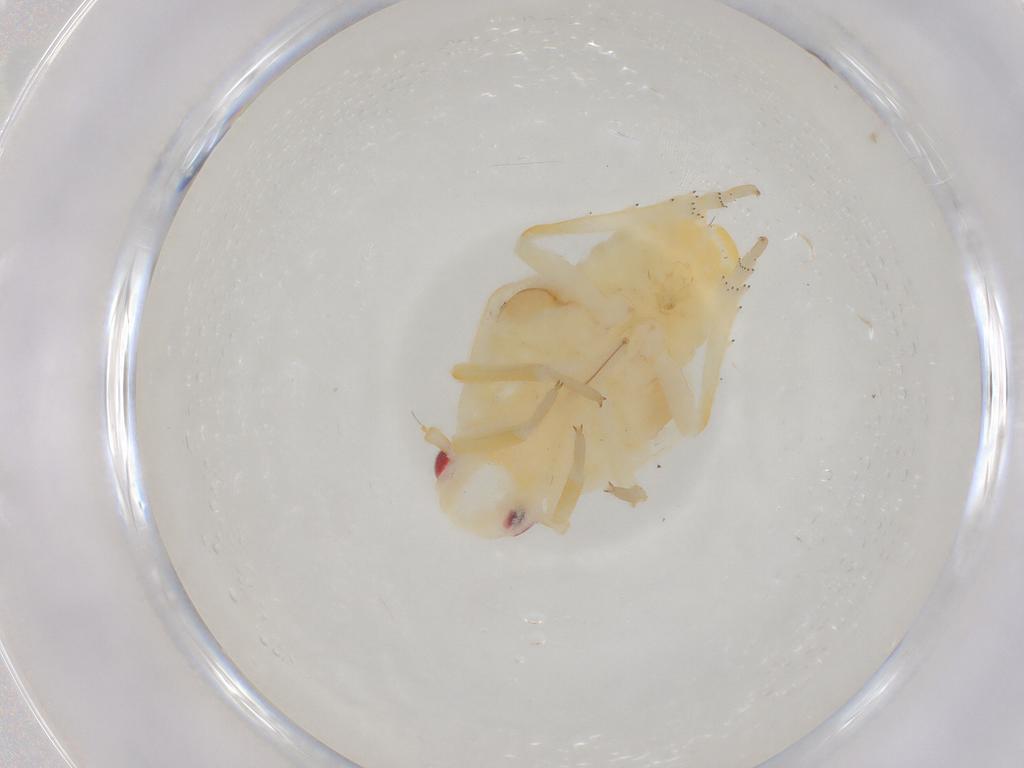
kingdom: Animalia
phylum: Arthropoda
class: Insecta
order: Hemiptera
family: Flatidae
